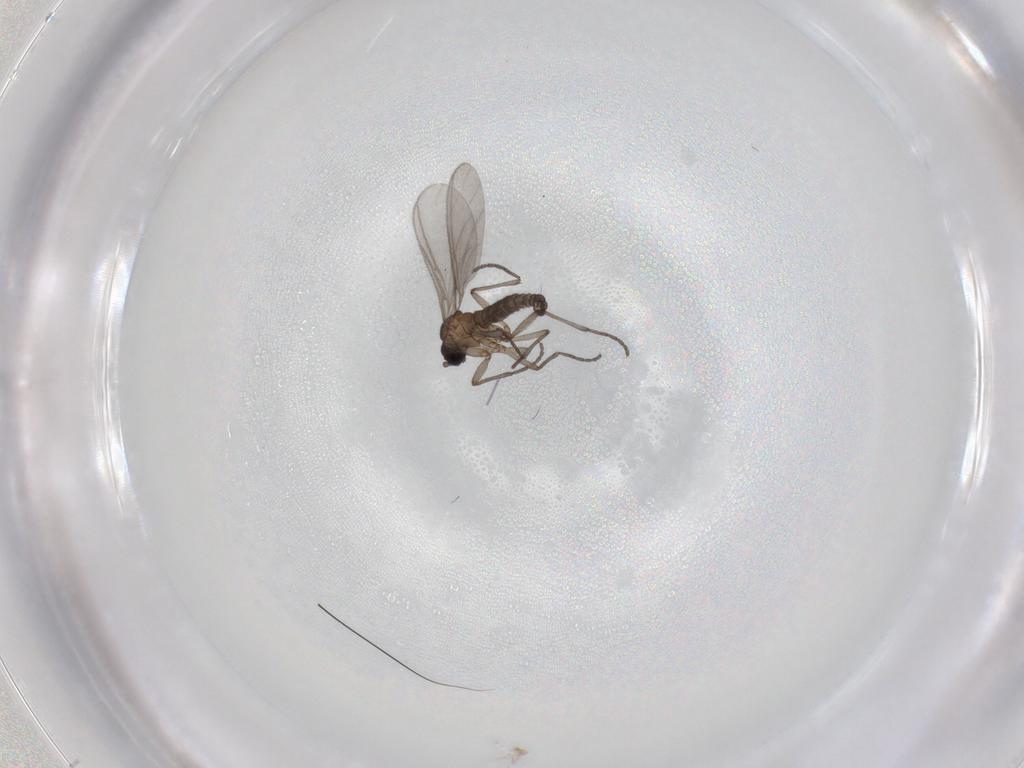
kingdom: Animalia
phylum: Arthropoda
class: Insecta
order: Diptera
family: Sciaridae
